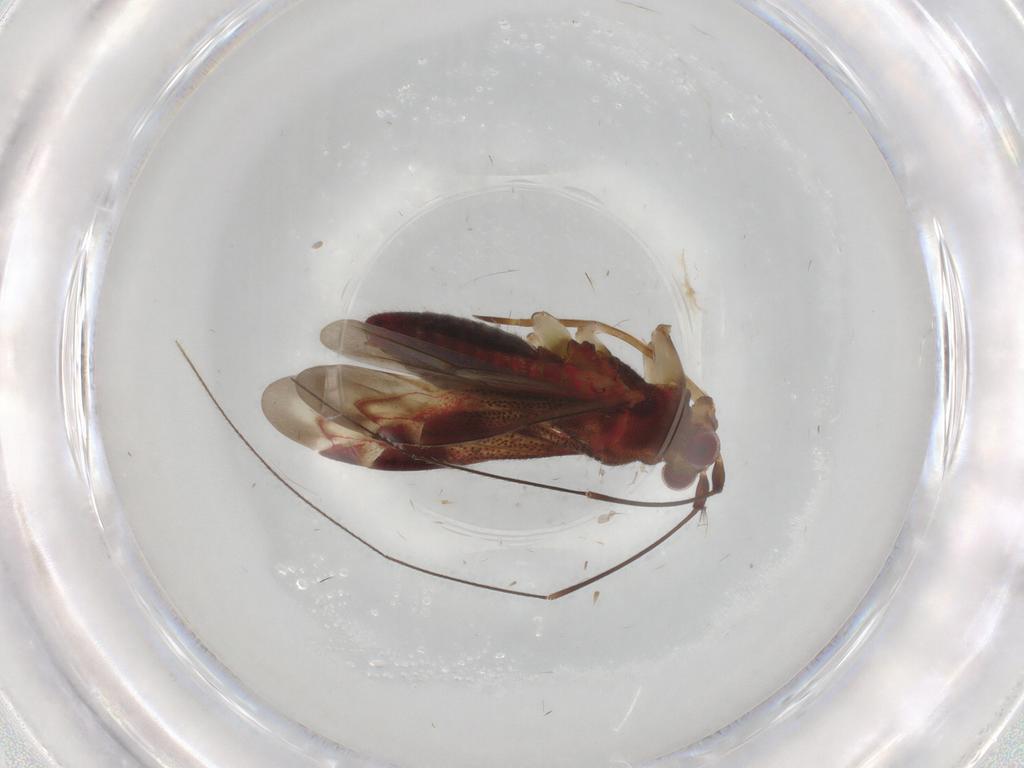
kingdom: Animalia
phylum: Arthropoda
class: Insecta
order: Hemiptera
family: Miridae
